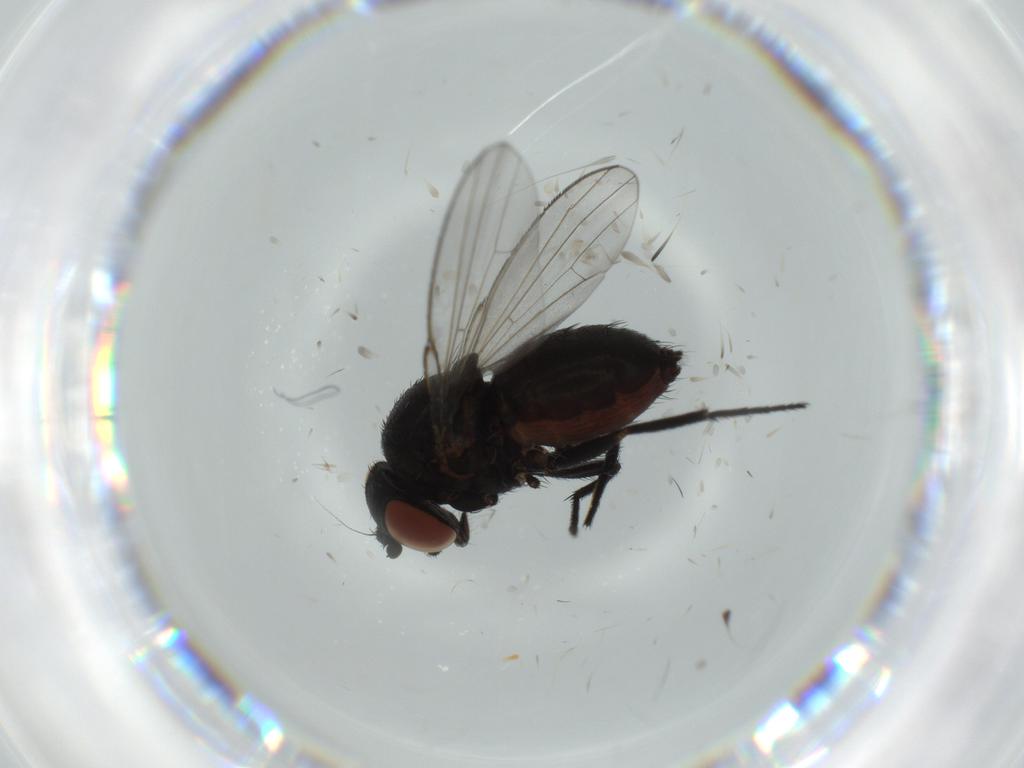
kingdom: Animalia
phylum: Arthropoda
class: Insecta
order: Diptera
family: Milichiidae
